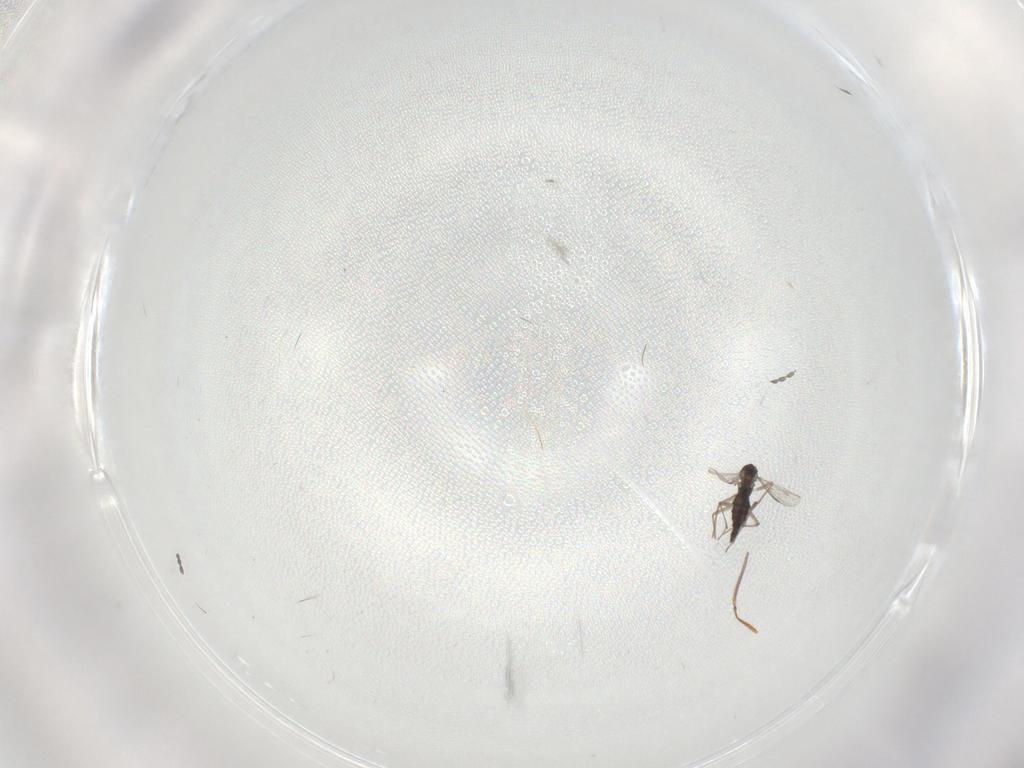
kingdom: Animalia
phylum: Arthropoda
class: Insecta
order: Diptera
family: Chironomidae
